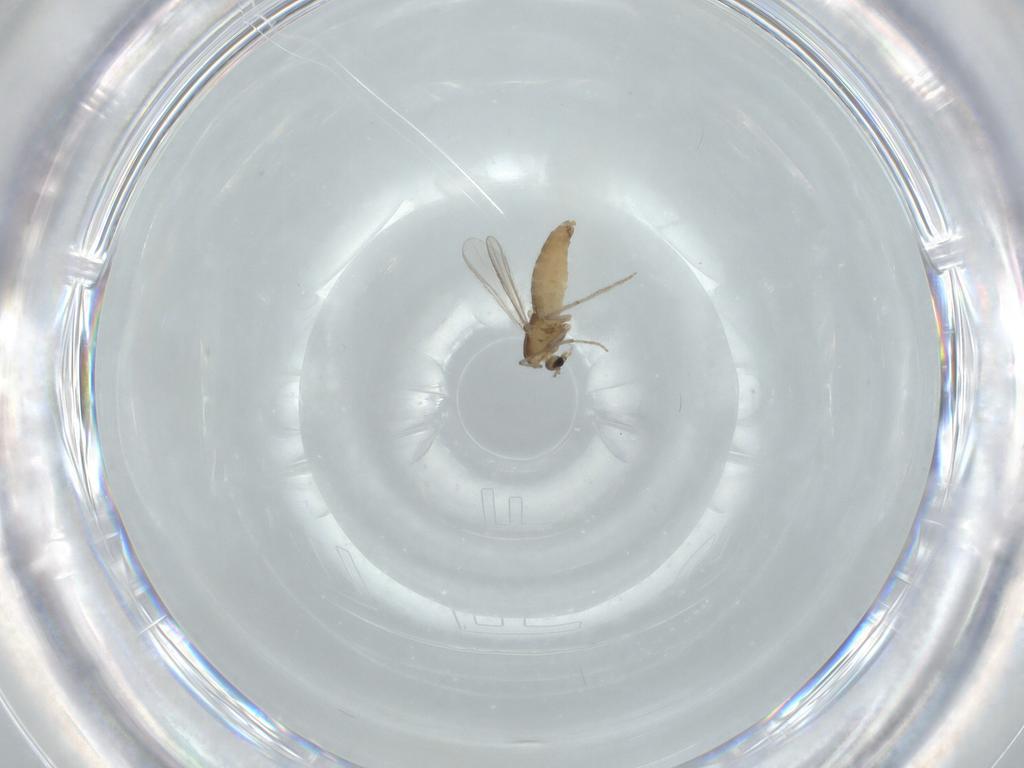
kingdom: Animalia
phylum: Arthropoda
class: Insecta
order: Diptera
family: Chironomidae
